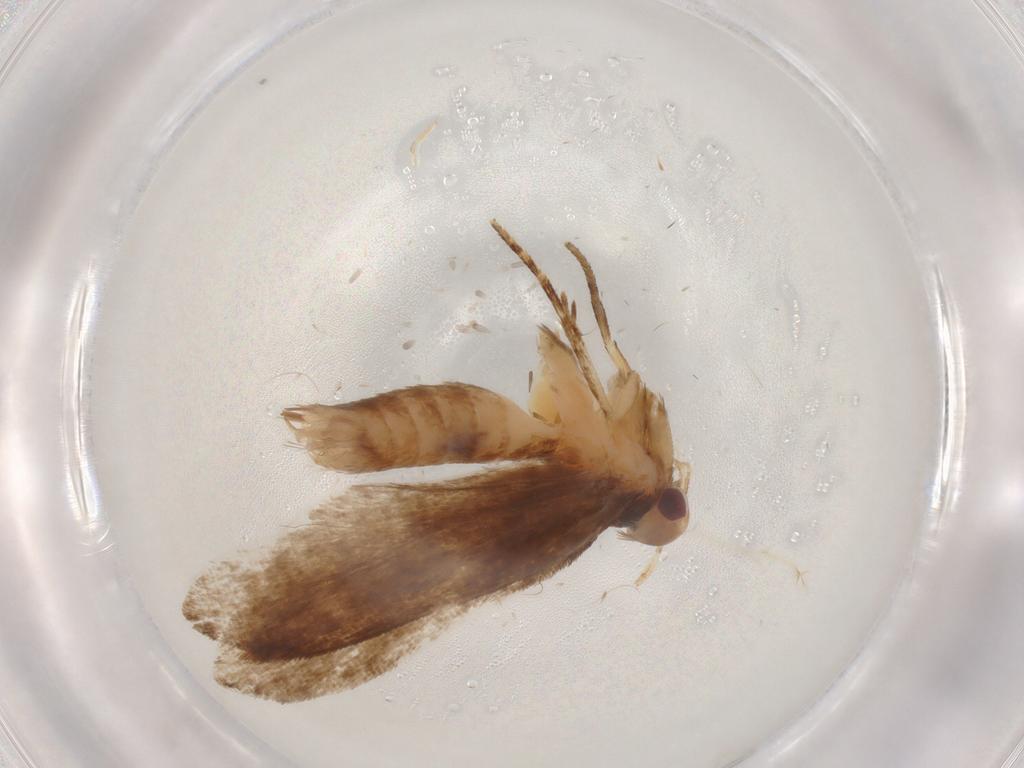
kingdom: Animalia
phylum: Arthropoda
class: Insecta
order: Lepidoptera
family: Gelechiidae
